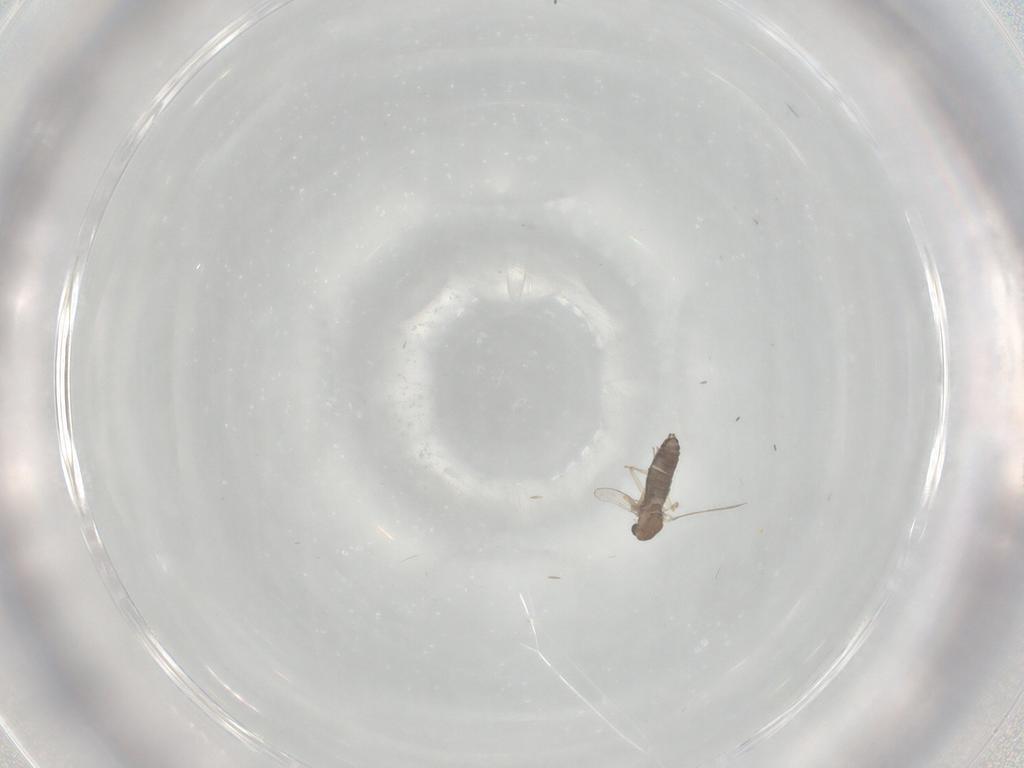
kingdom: Animalia
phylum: Arthropoda
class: Insecta
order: Diptera
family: Chironomidae
